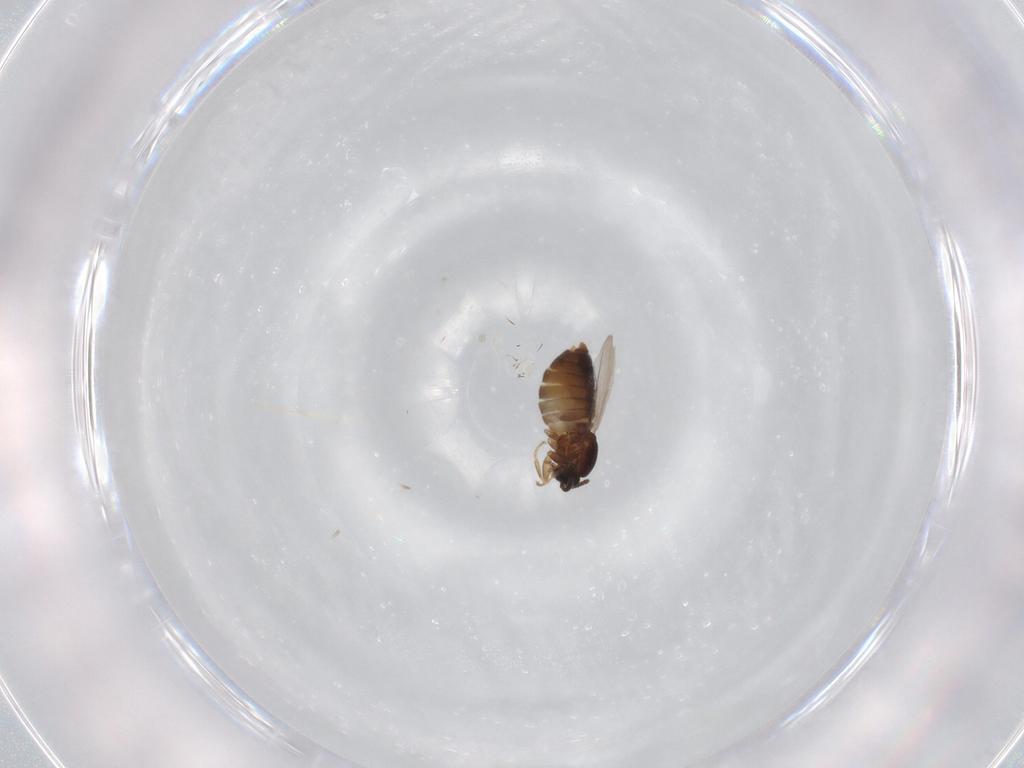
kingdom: Animalia
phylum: Arthropoda
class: Insecta
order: Diptera
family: Scatopsidae
